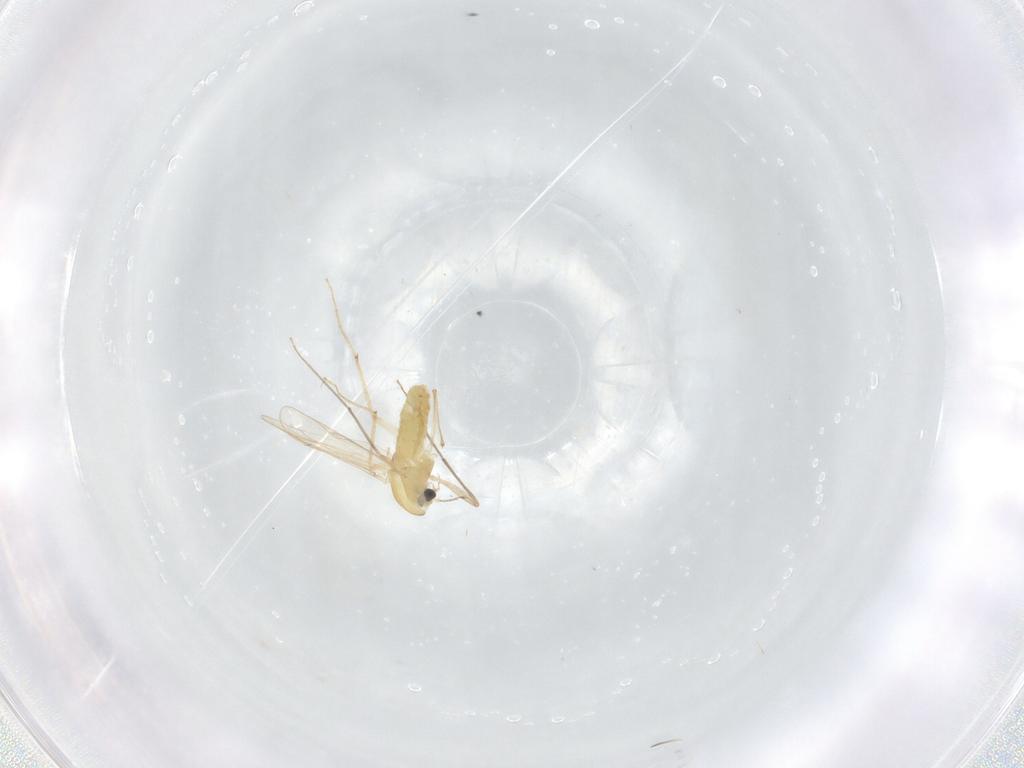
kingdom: Animalia
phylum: Arthropoda
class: Insecta
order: Diptera
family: Chironomidae
